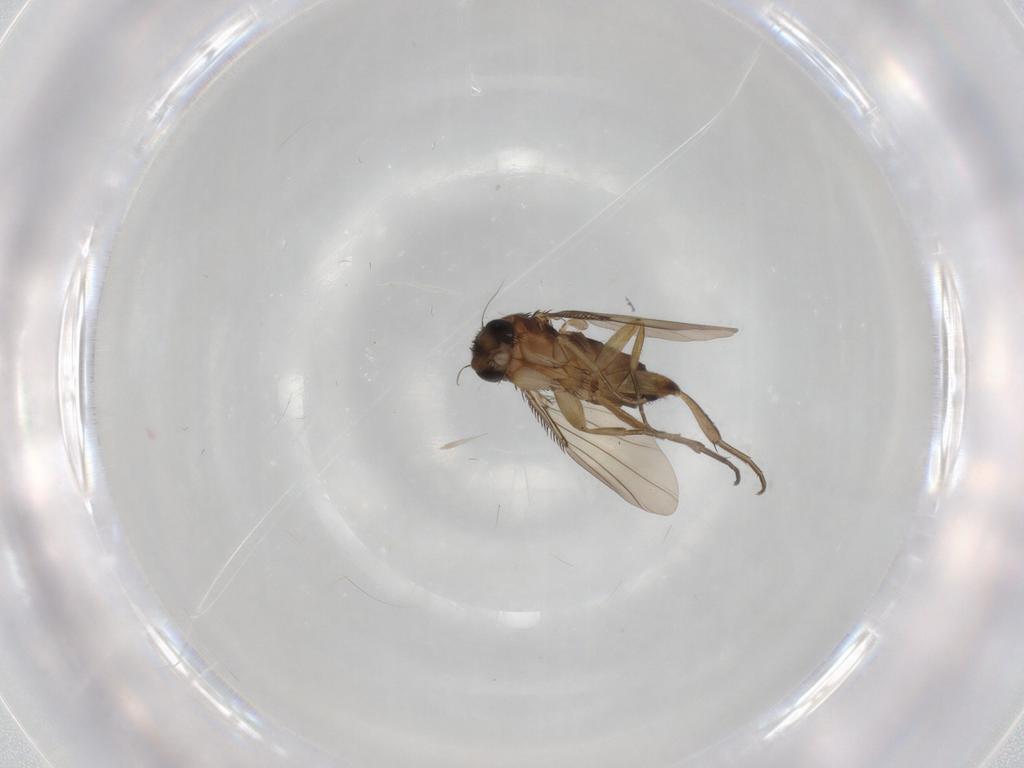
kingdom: Animalia
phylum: Arthropoda
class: Insecta
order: Diptera
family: Phoridae
